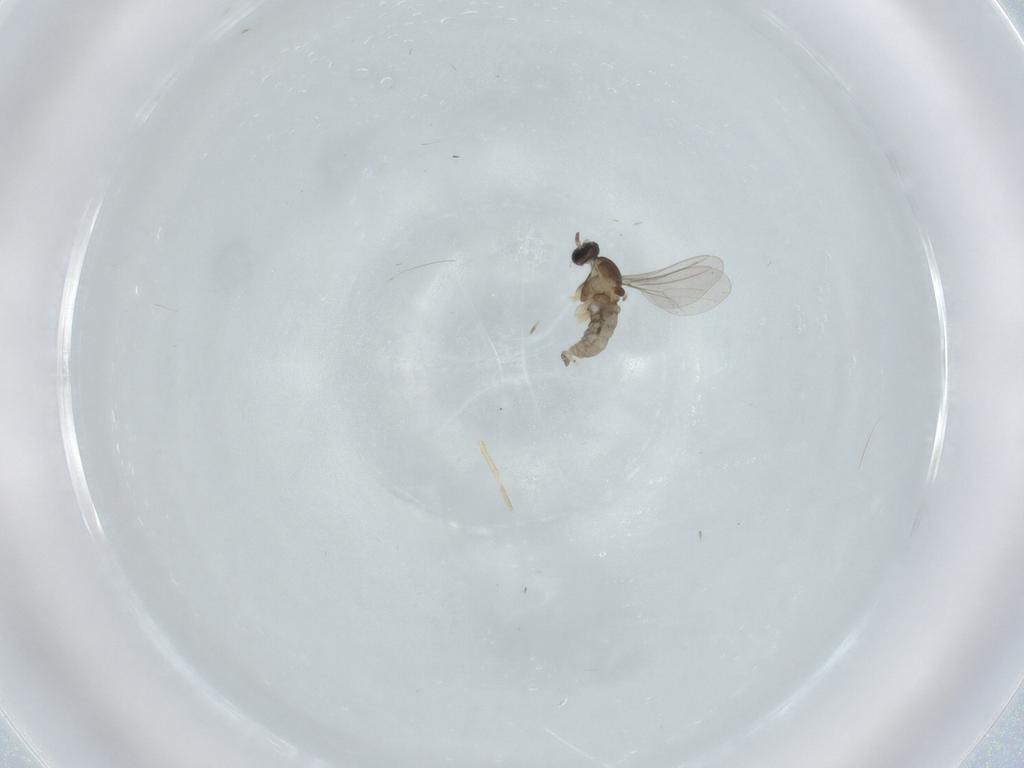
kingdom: Animalia
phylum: Arthropoda
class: Insecta
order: Diptera
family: Cecidomyiidae
